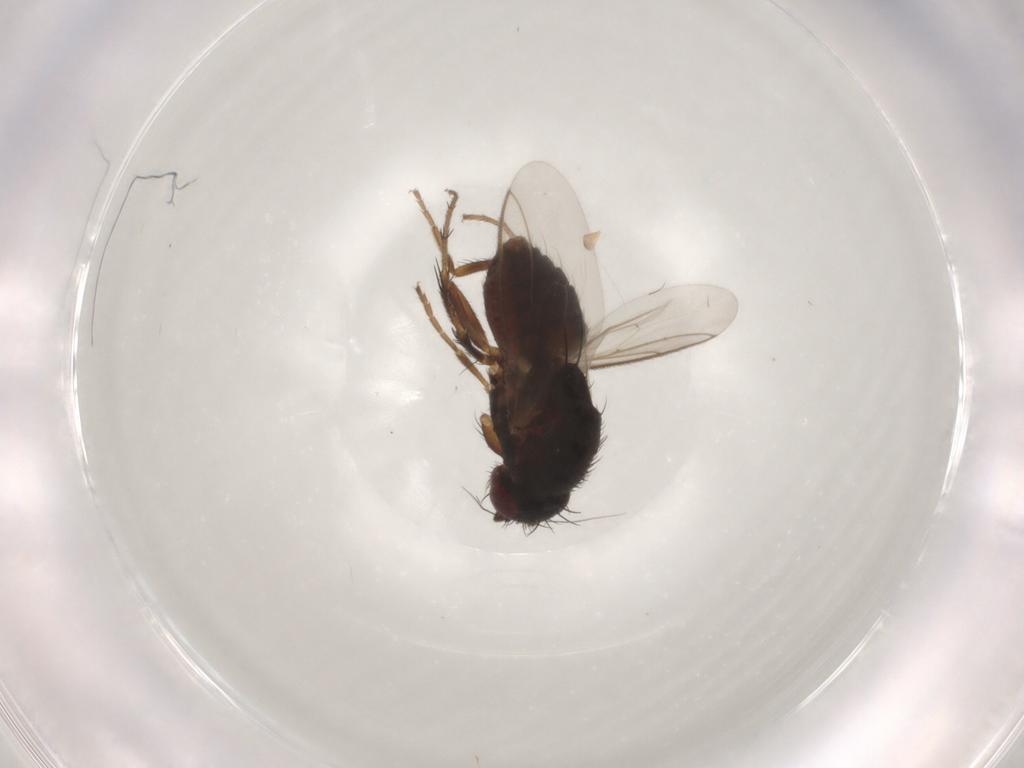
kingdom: Animalia
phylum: Arthropoda
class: Insecta
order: Diptera
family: Sphaeroceridae
